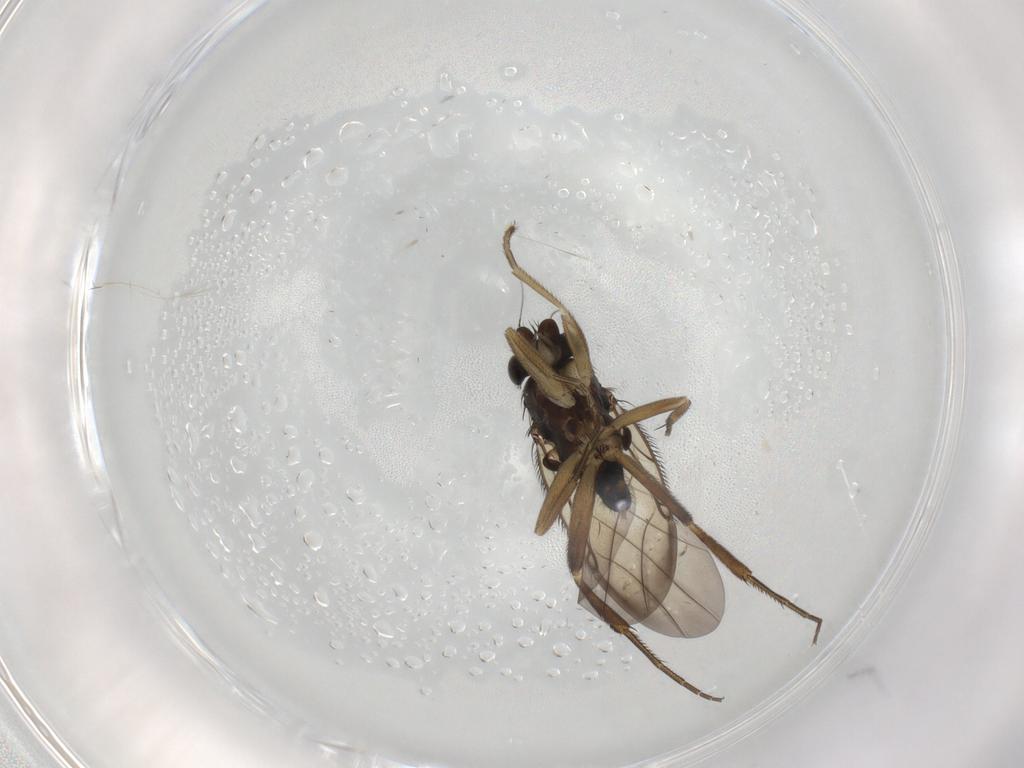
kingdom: Animalia
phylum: Arthropoda
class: Insecta
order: Diptera
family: Phoridae
